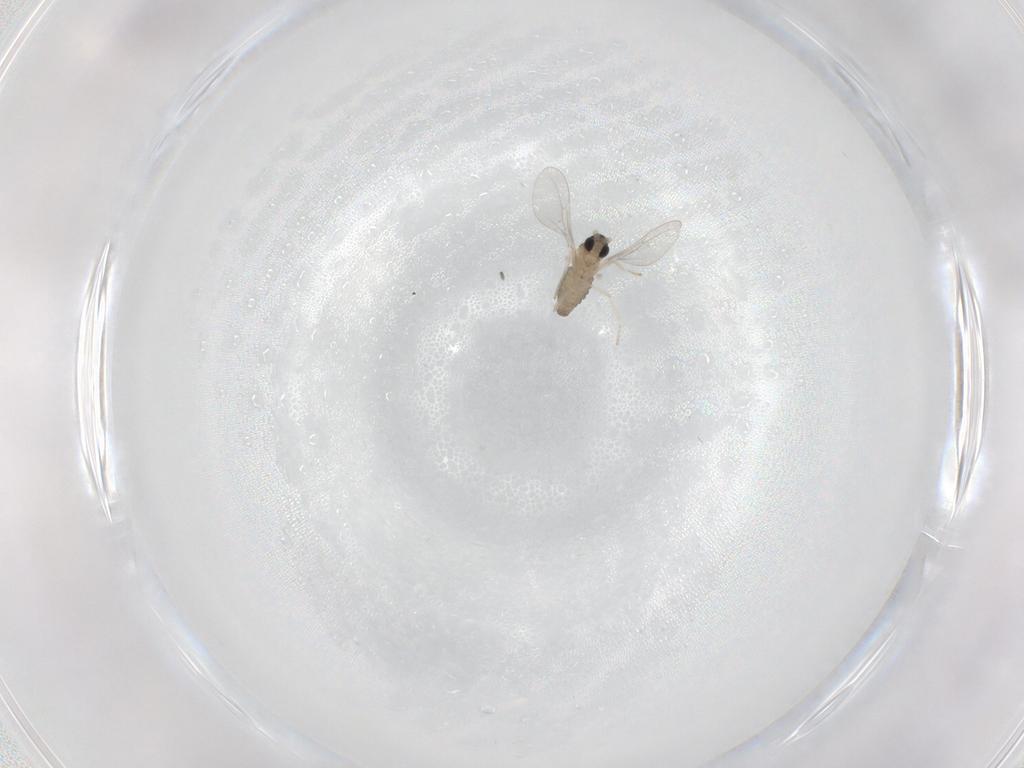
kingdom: Animalia
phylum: Arthropoda
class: Insecta
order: Diptera
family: Cecidomyiidae
